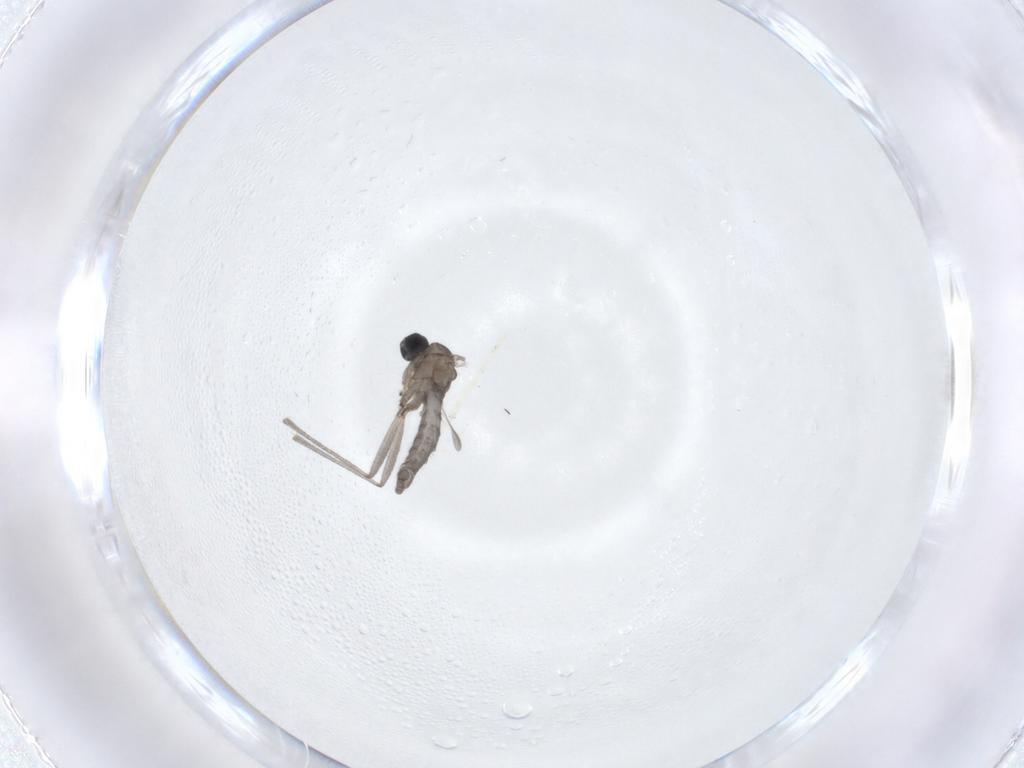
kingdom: Animalia
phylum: Arthropoda
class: Insecta
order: Diptera
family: Sciaridae
